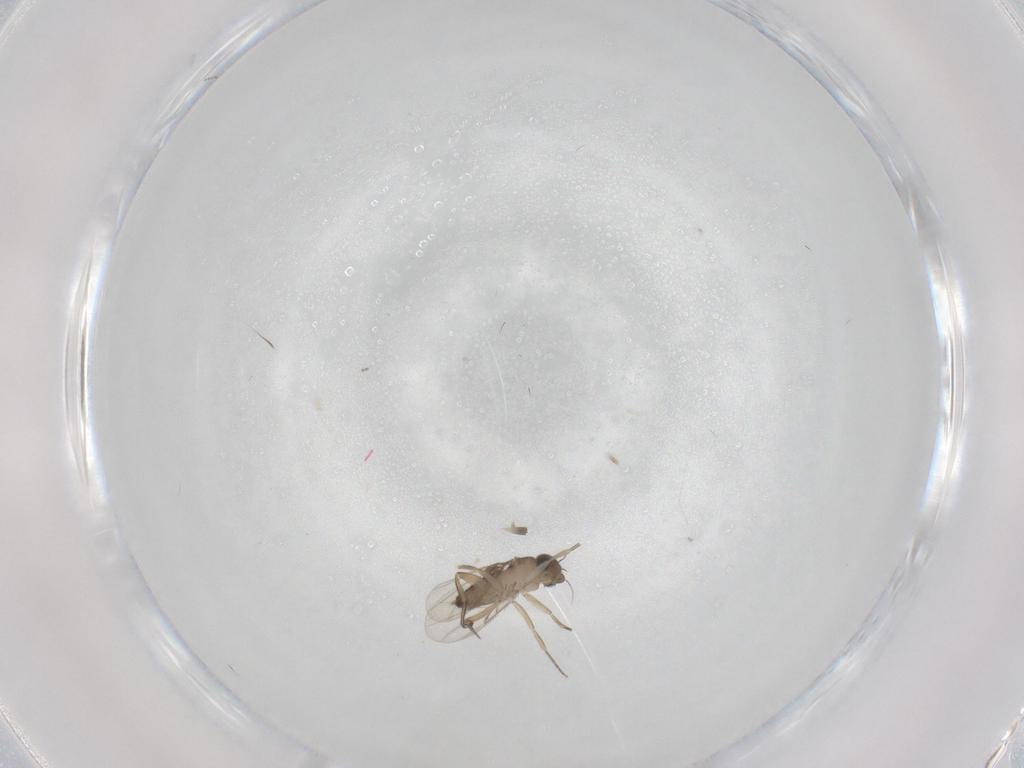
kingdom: Animalia
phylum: Arthropoda
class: Insecta
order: Diptera
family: Phoridae
